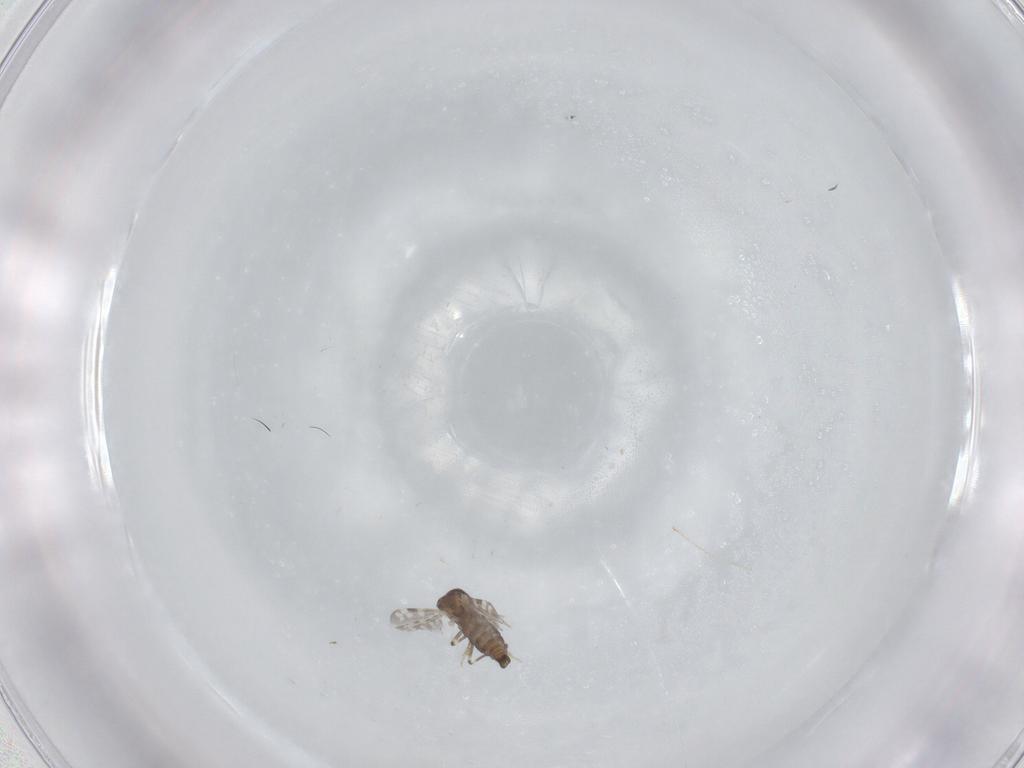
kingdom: Animalia
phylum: Arthropoda
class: Insecta
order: Diptera
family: Ceratopogonidae
